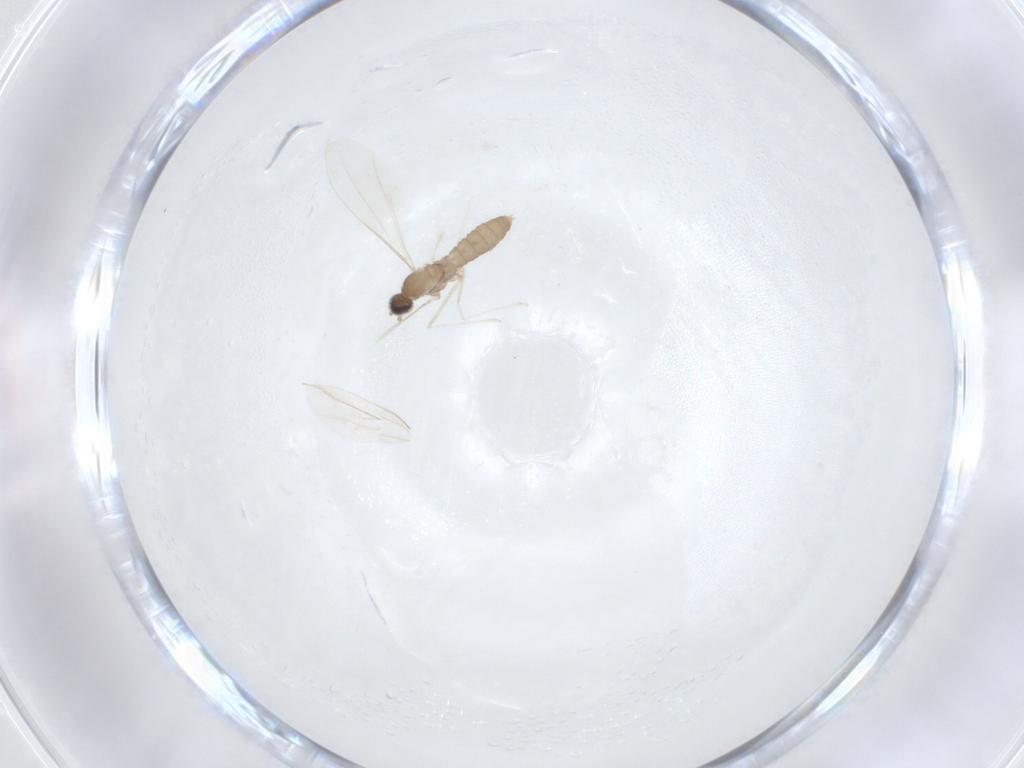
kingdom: Animalia
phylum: Arthropoda
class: Insecta
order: Diptera
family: Cecidomyiidae
